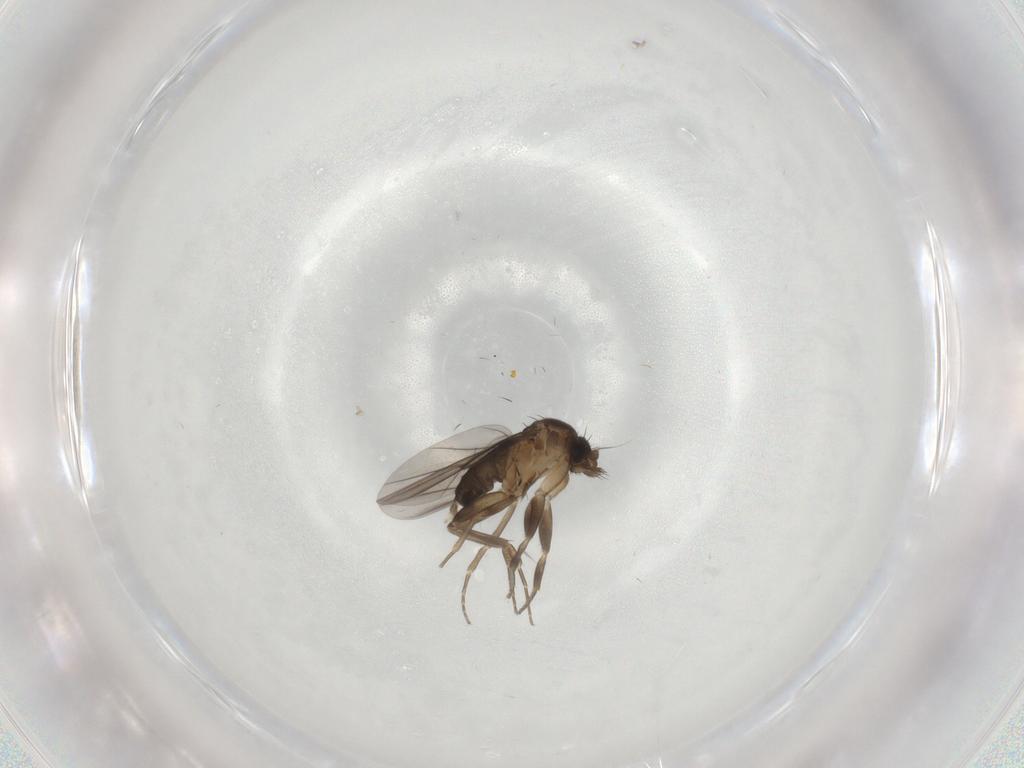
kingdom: Animalia
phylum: Arthropoda
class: Insecta
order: Diptera
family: Chironomidae
